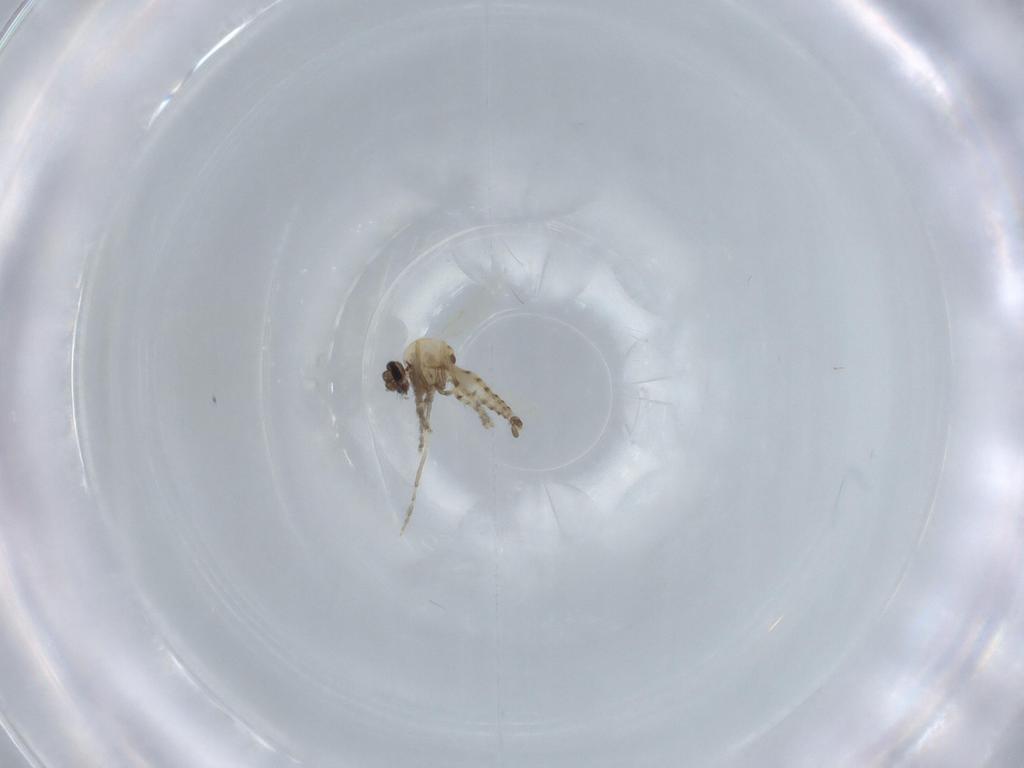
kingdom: Animalia
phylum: Arthropoda
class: Insecta
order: Diptera
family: Ceratopogonidae
